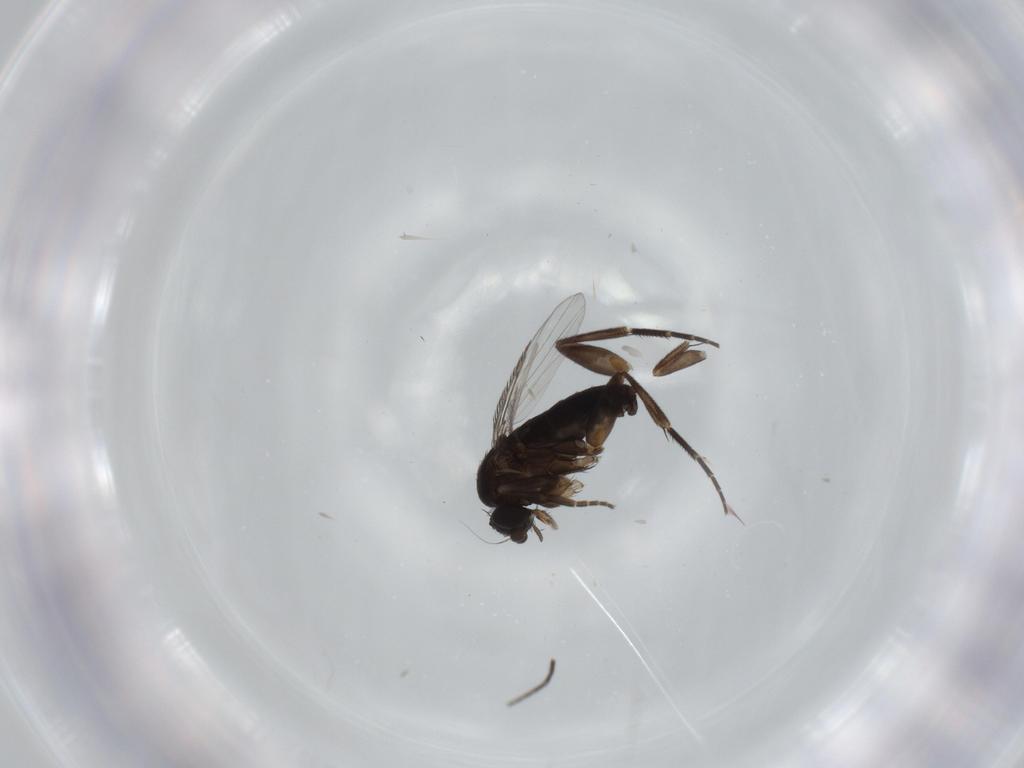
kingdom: Animalia
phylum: Arthropoda
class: Insecta
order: Diptera
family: Phoridae
